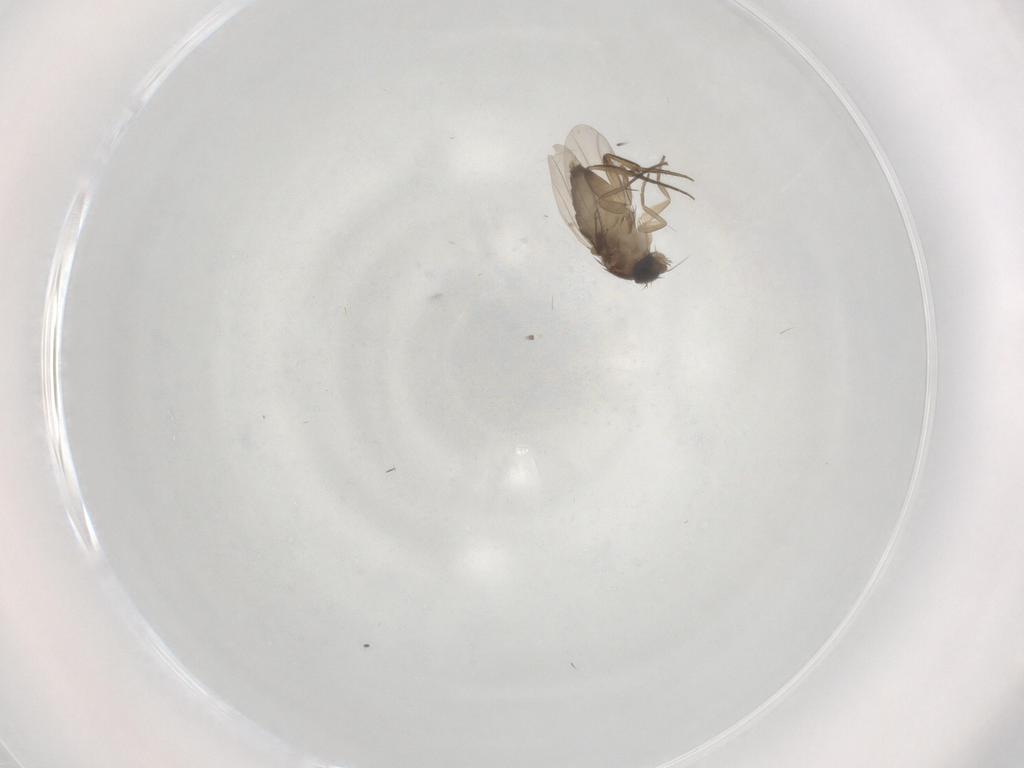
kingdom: Animalia
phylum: Arthropoda
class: Insecta
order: Diptera
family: Phoridae
